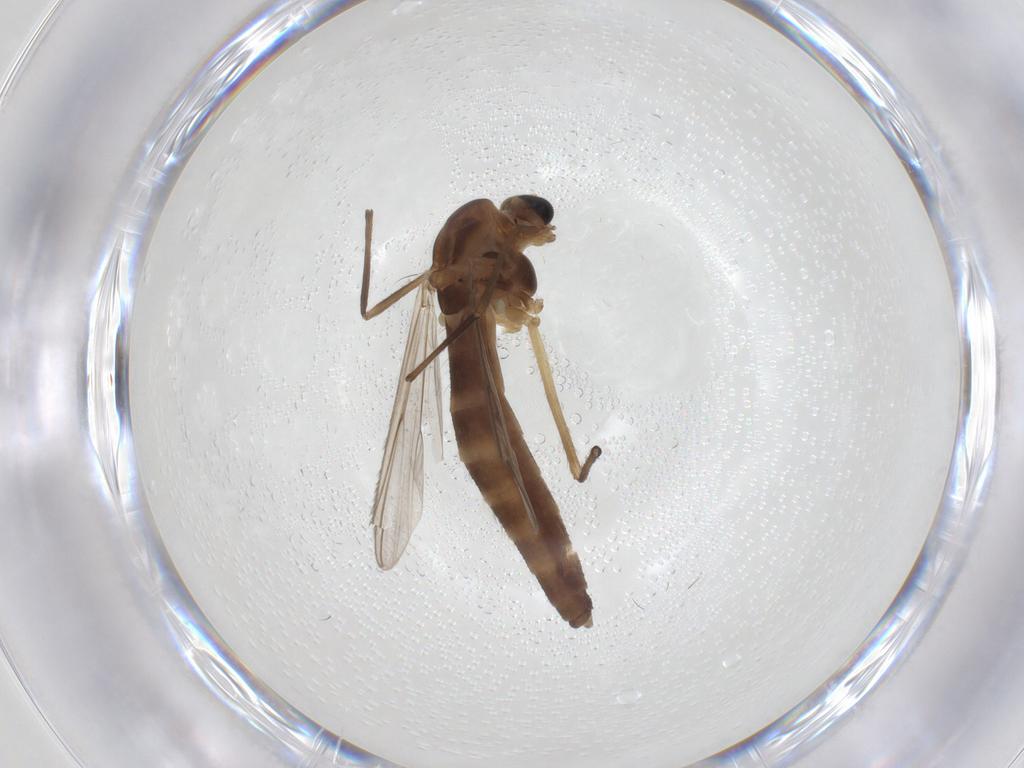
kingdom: Animalia
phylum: Arthropoda
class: Insecta
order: Diptera
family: Chironomidae
